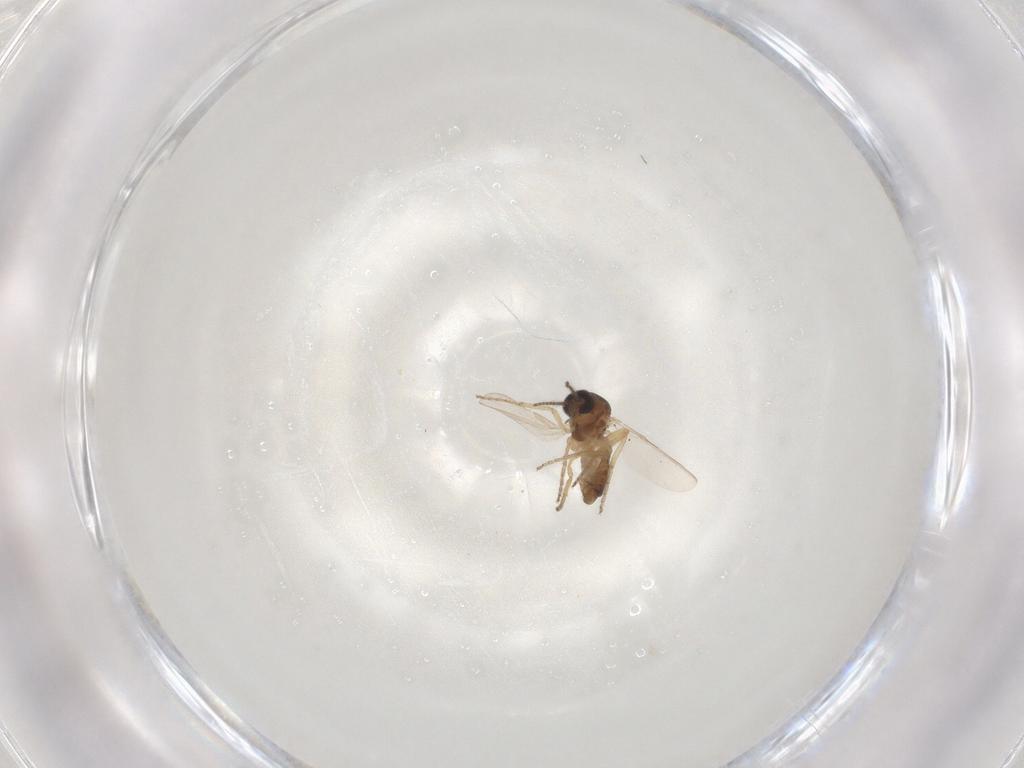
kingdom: Animalia
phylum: Arthropoda
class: Insecta
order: Diptera
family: Ceratopogonidae
